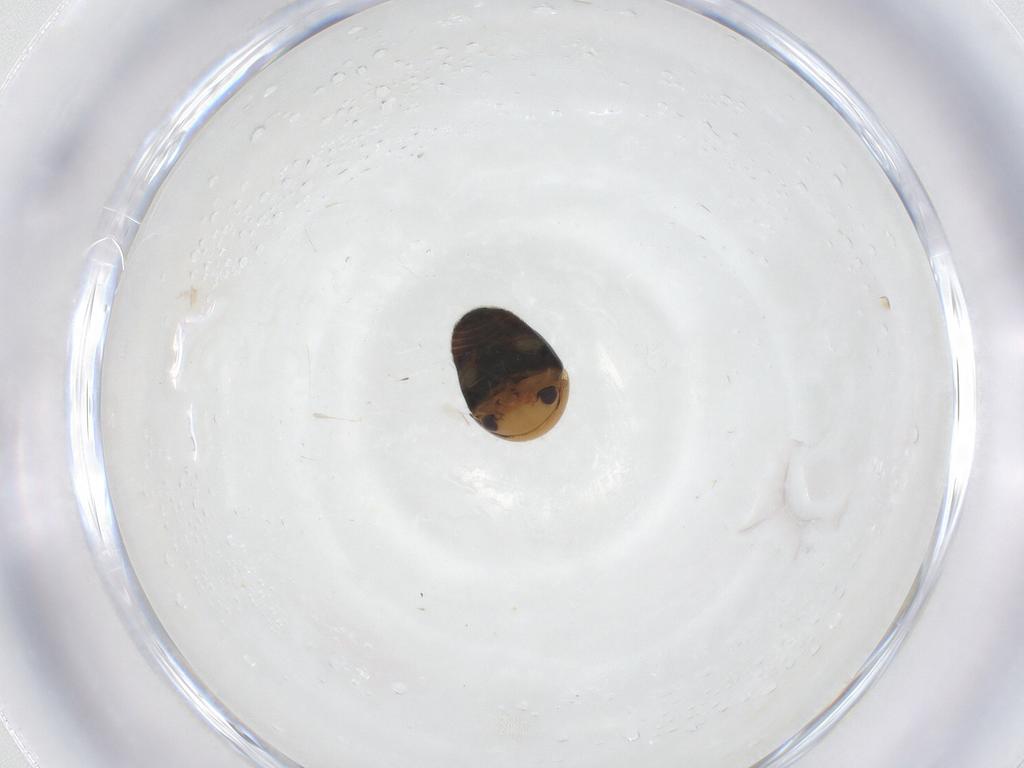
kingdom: Animalia
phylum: Arthropoda
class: Insecta
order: Coleoptera
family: Cybocephalidae
